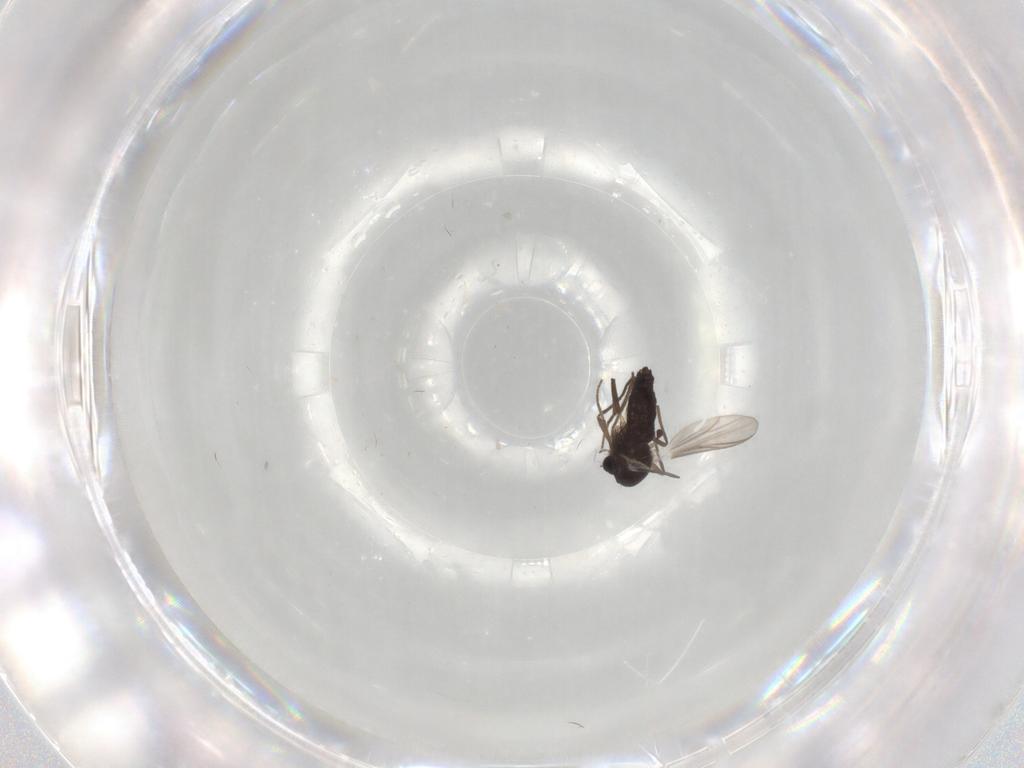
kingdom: Animalia
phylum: Arthropoda
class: Insecta
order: Diptera
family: Chironomidae
